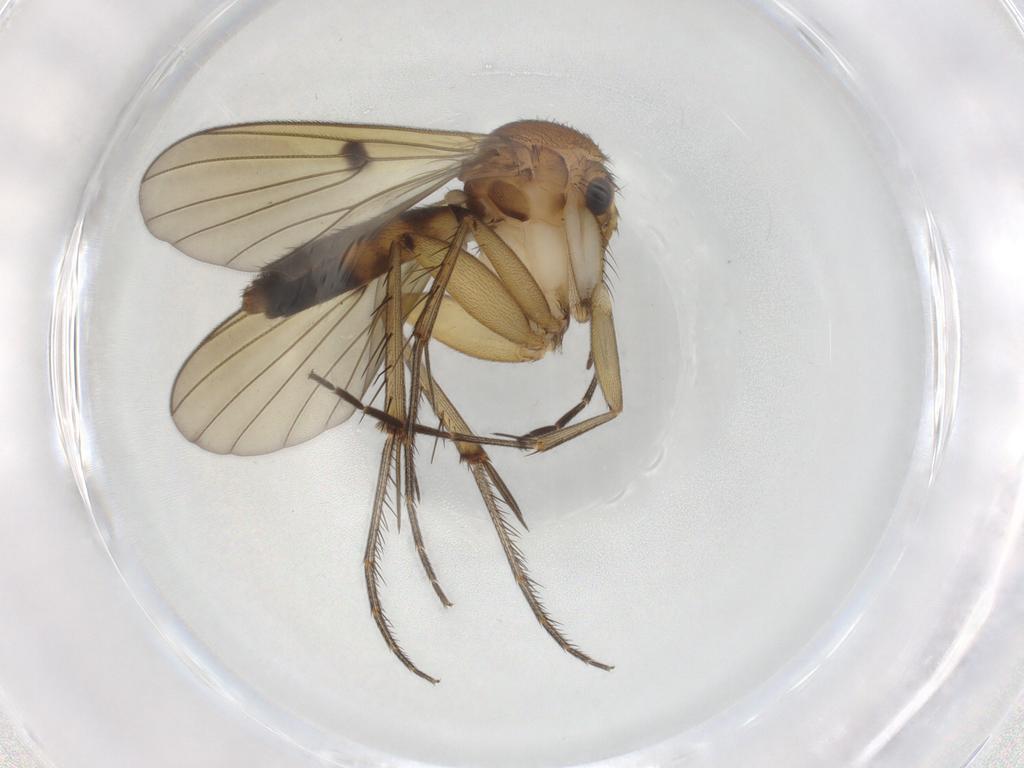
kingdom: Animalia
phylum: Arthropoda
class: Insecta
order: Diptera
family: Mycetophilidae
